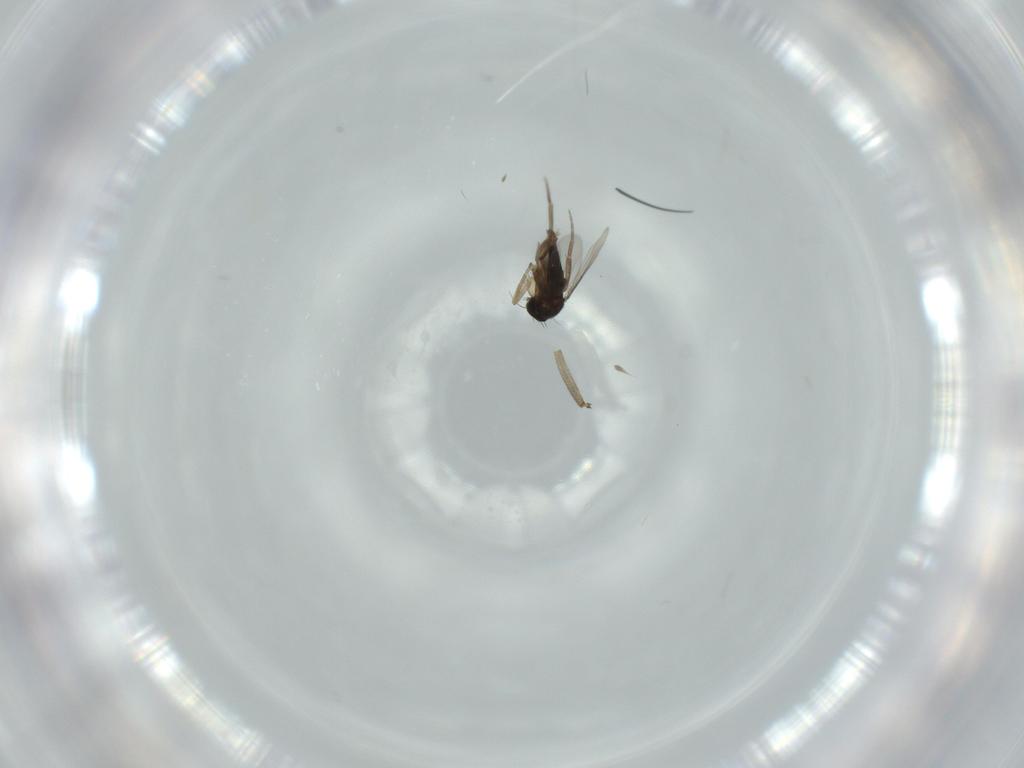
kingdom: Animalia
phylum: Arthropoda
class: Insecta
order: Diptera
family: Phoridae
